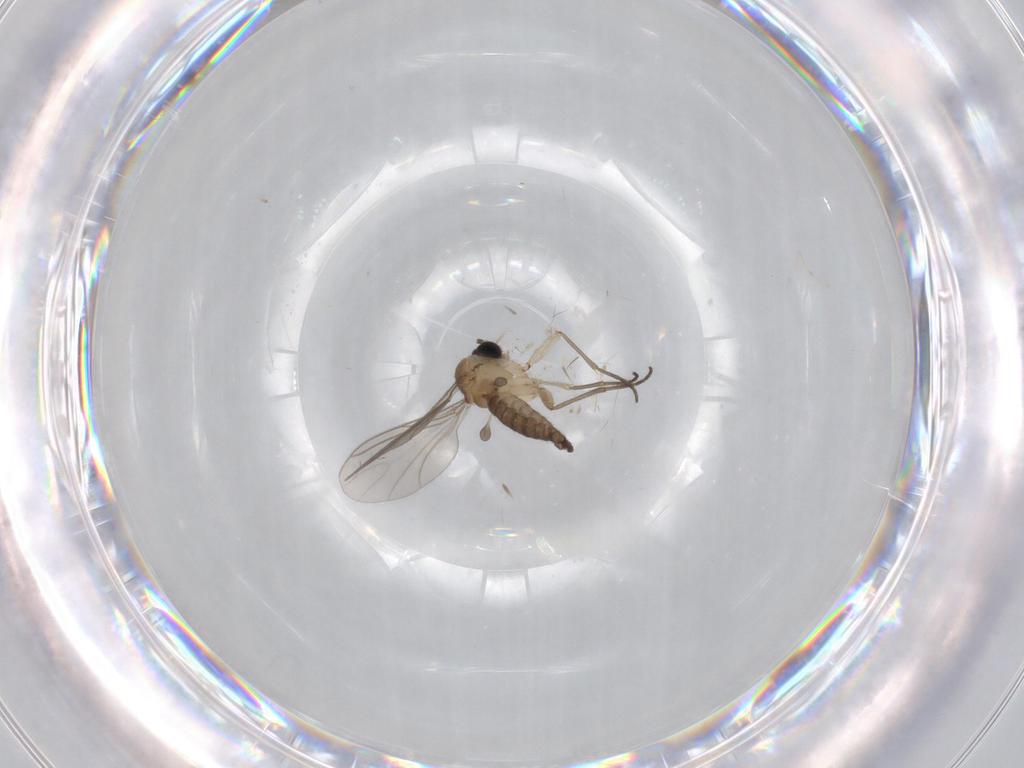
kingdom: Animalia
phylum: Arthropoda
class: Insecta
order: Diptera
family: Sciaridae
